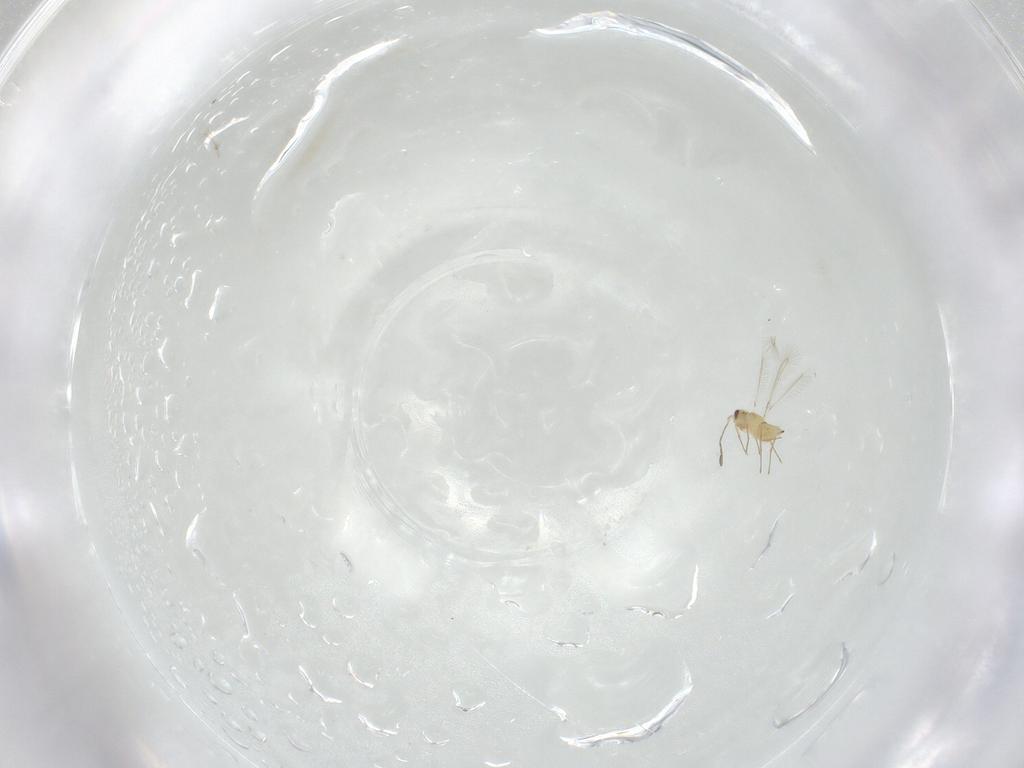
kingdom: Animalia
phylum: Arthropoda
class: Insecta
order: Hymenoptera
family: Mymaridae
